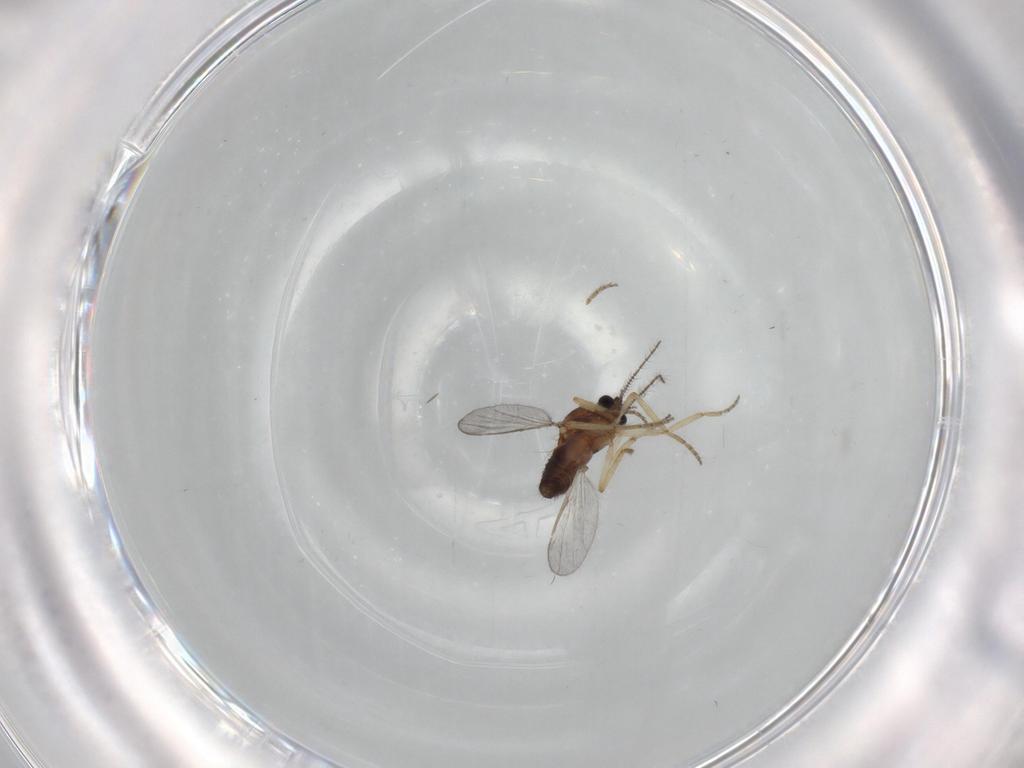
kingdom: Animalia
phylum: Arthropoda
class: Insecta
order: Diptera
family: Ceratopogonidae
